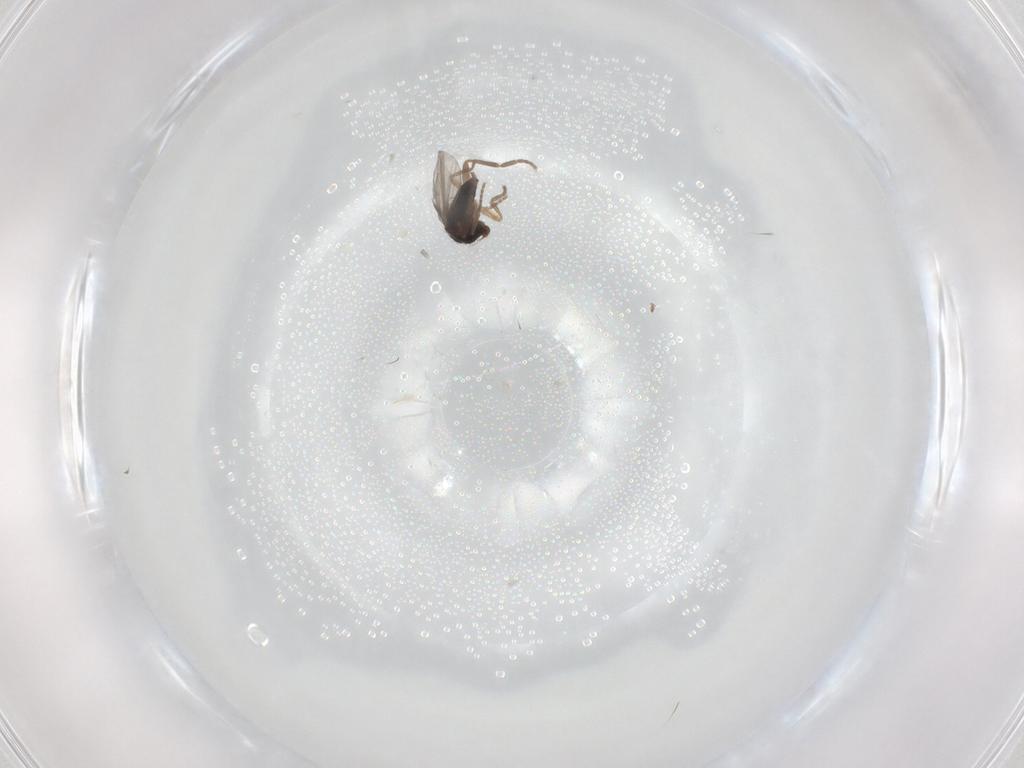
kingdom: Animalia
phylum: Arthropoda
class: Insecta
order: Diptera
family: Phoridae
